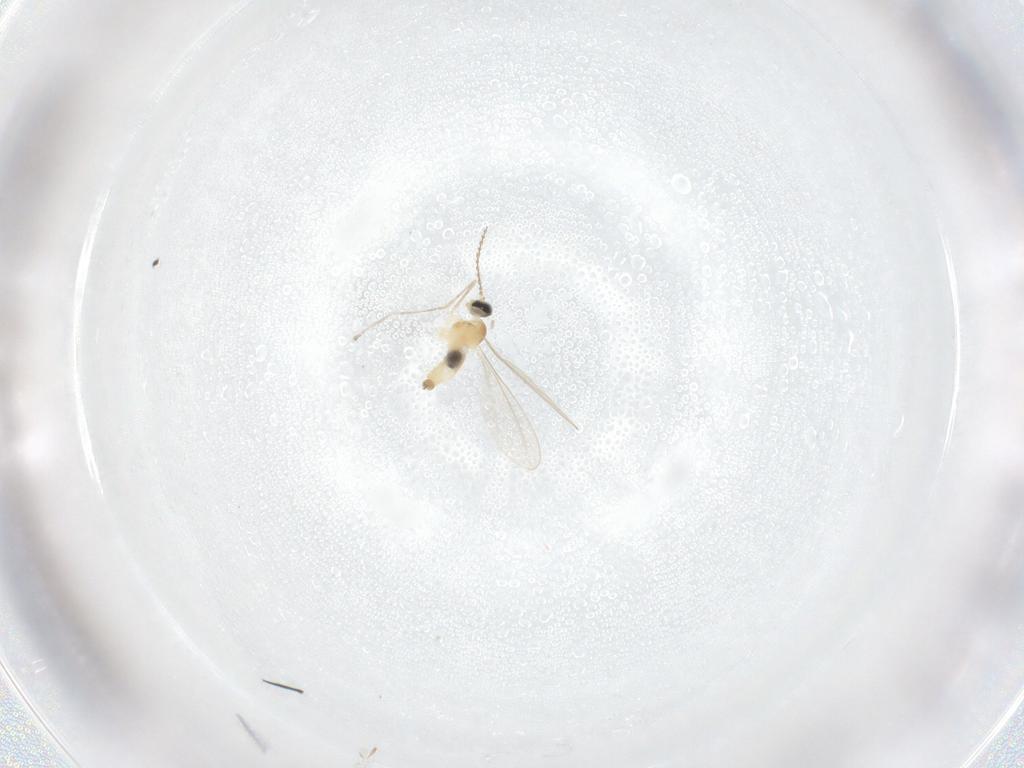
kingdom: Animalia
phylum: Arthropoda
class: Insecta
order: Diptera
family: Cecidomyiidae
